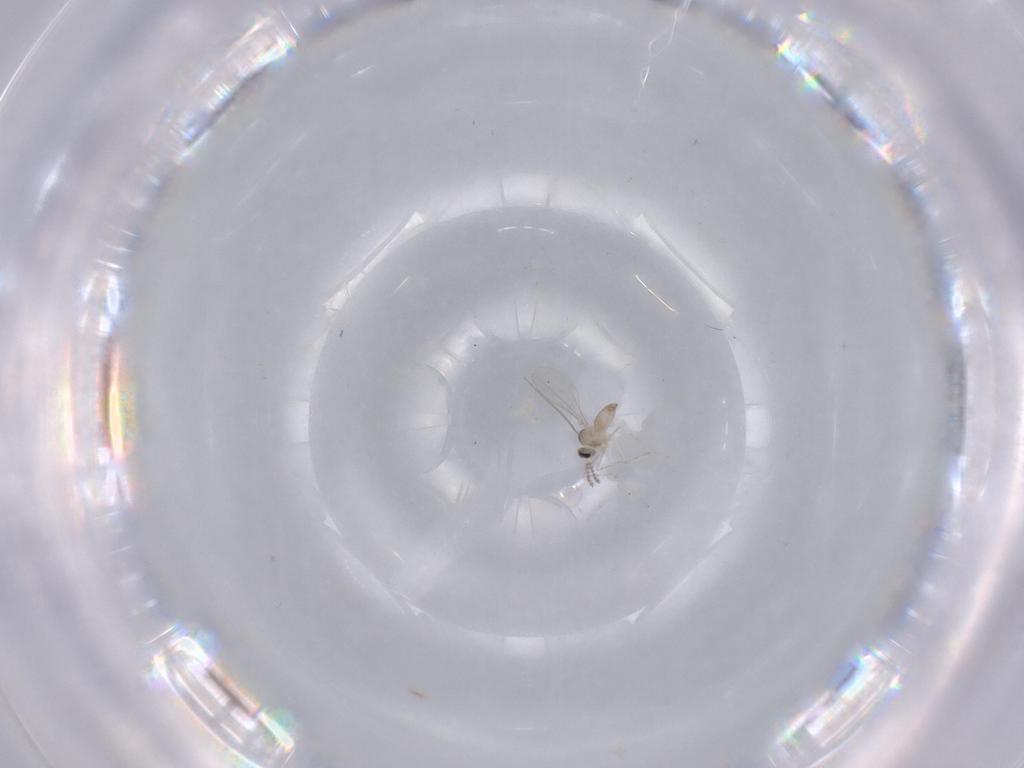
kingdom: Animalia
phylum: Arthropoda
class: Insecta
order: Diptera
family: Cecidomyiidae
